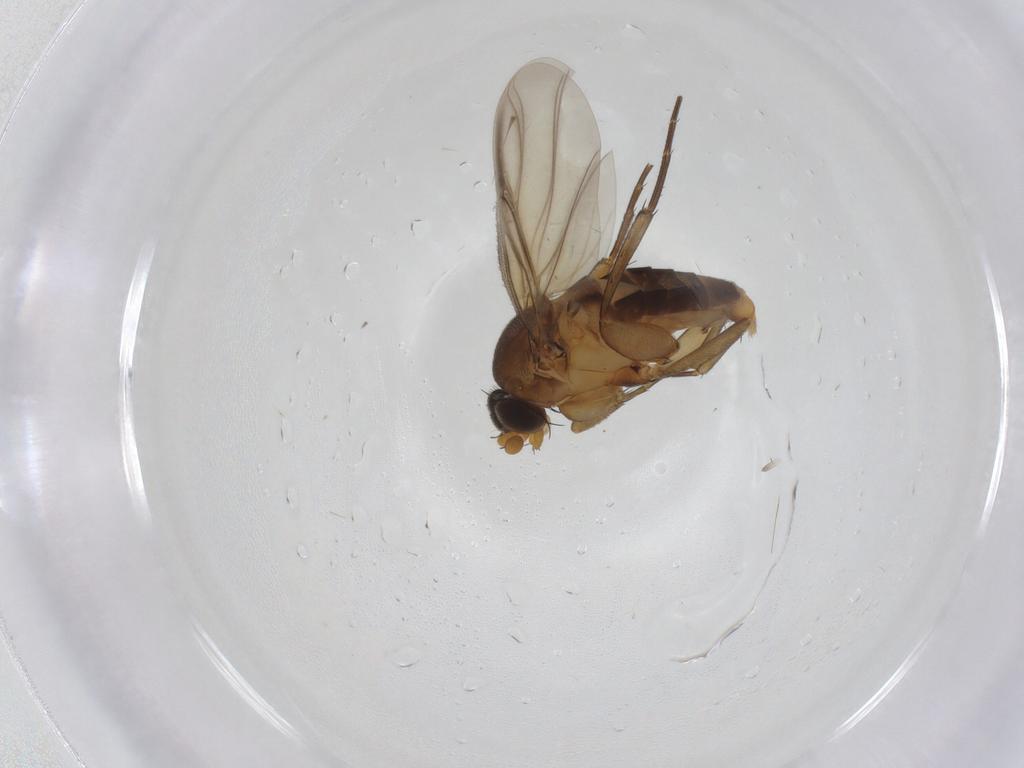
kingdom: Animalia
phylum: Arthropoda
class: Insecta
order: Diptera
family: Phoridae
